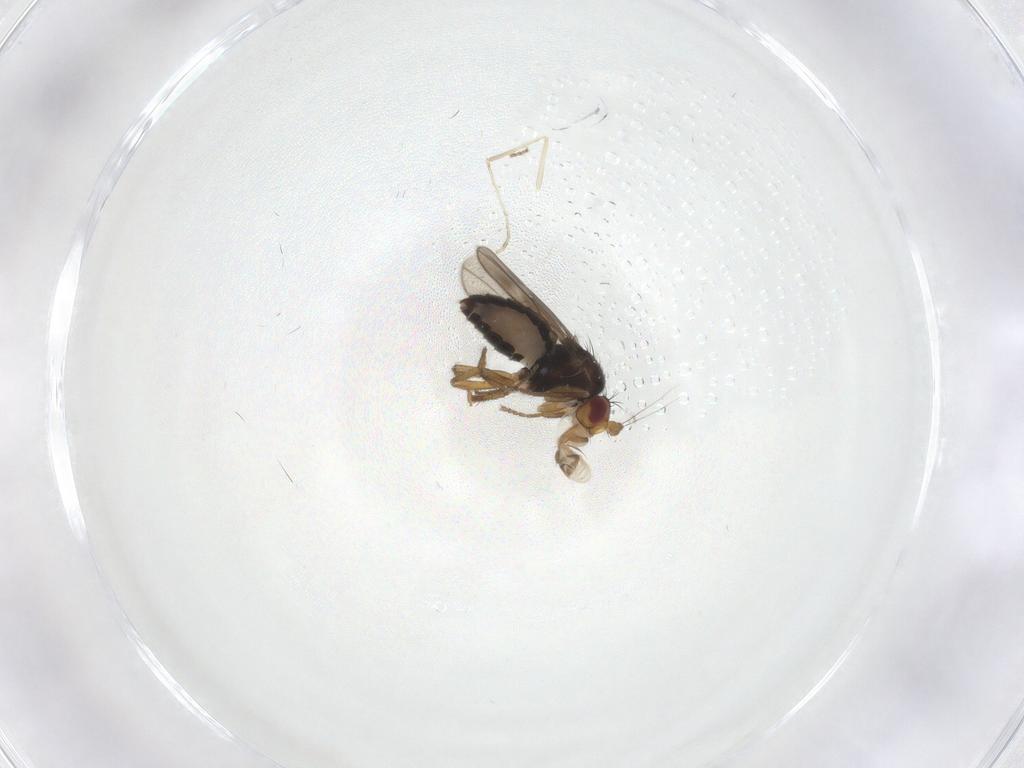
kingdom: Animalia
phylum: Arthropoda
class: Insecta
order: Diptera
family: Sphaeroceridae
